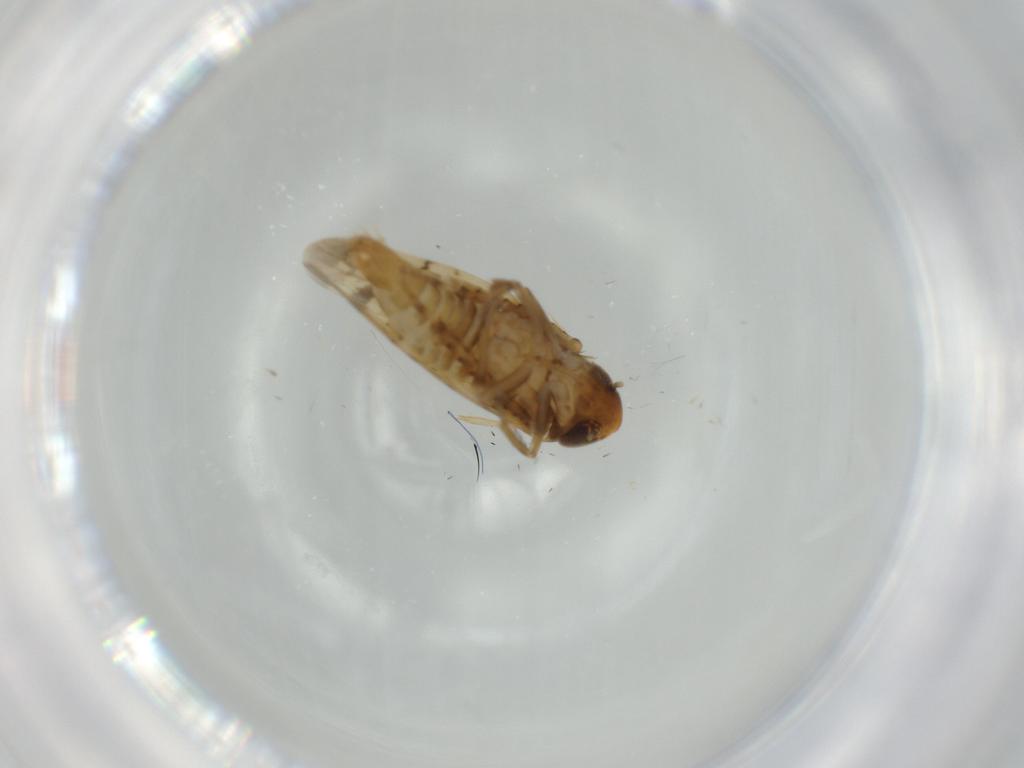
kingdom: Animalia
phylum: Arthropoda
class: Insecta
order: Hemiptera
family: Cicadellidae
